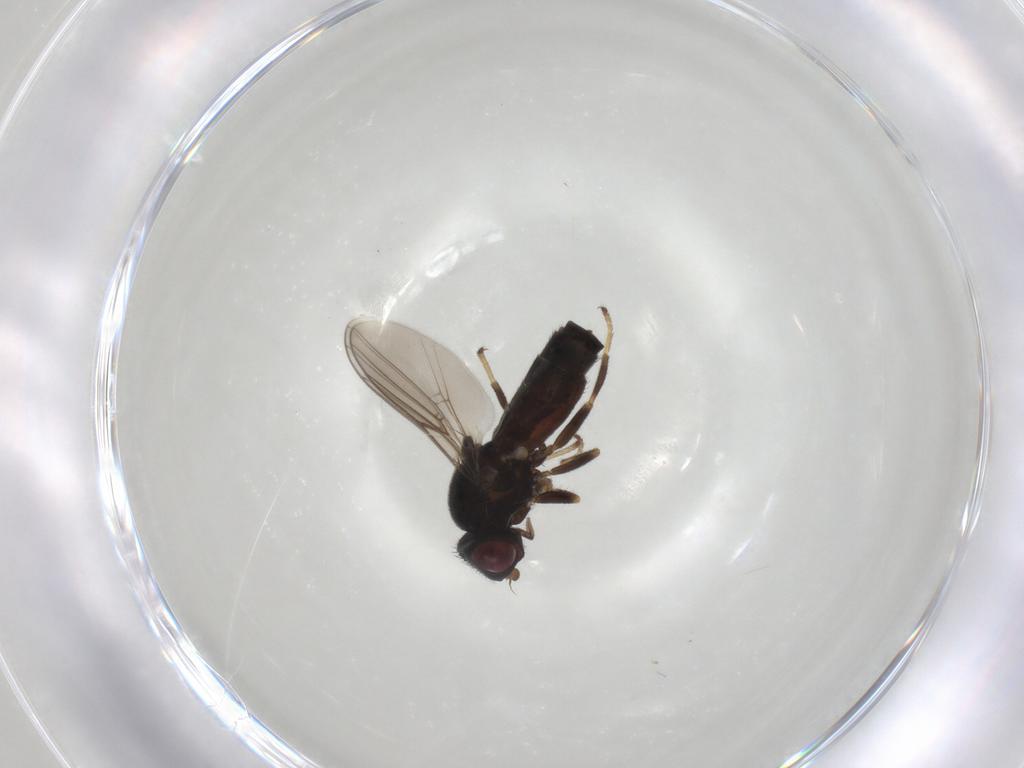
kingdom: Animalia
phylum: Arthropoda
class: Insecta
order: Diptera
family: Chloropidae
